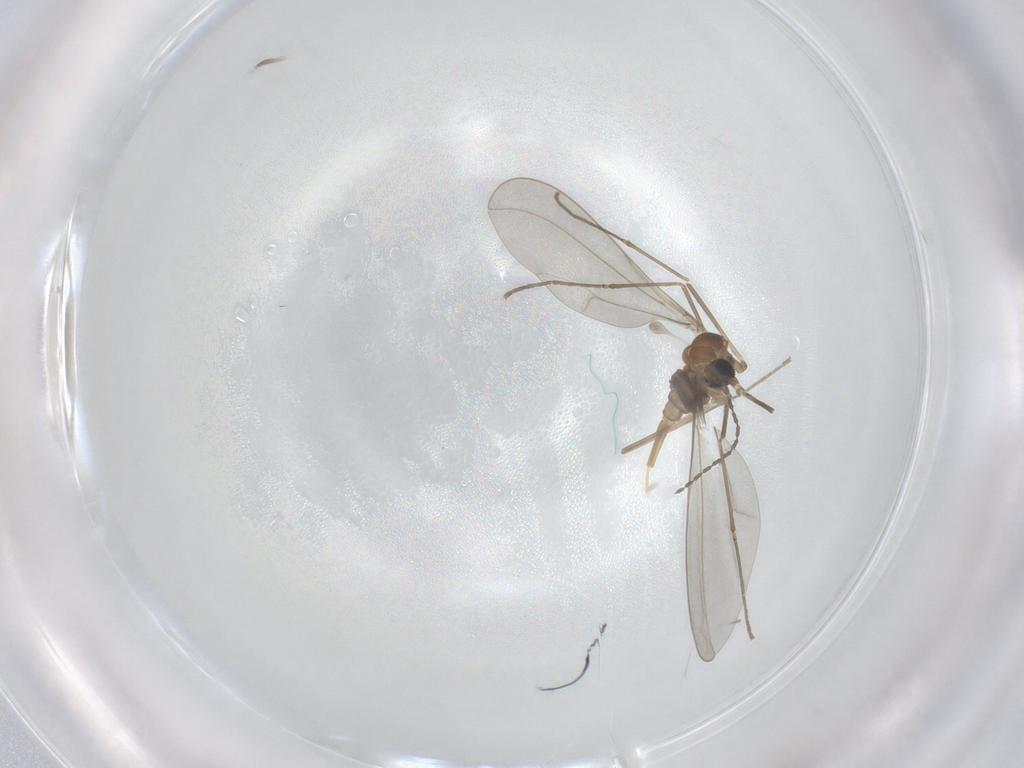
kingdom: Animalia
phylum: Arthropoda
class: Insecta
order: Diptera
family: Cecidomyiidae
